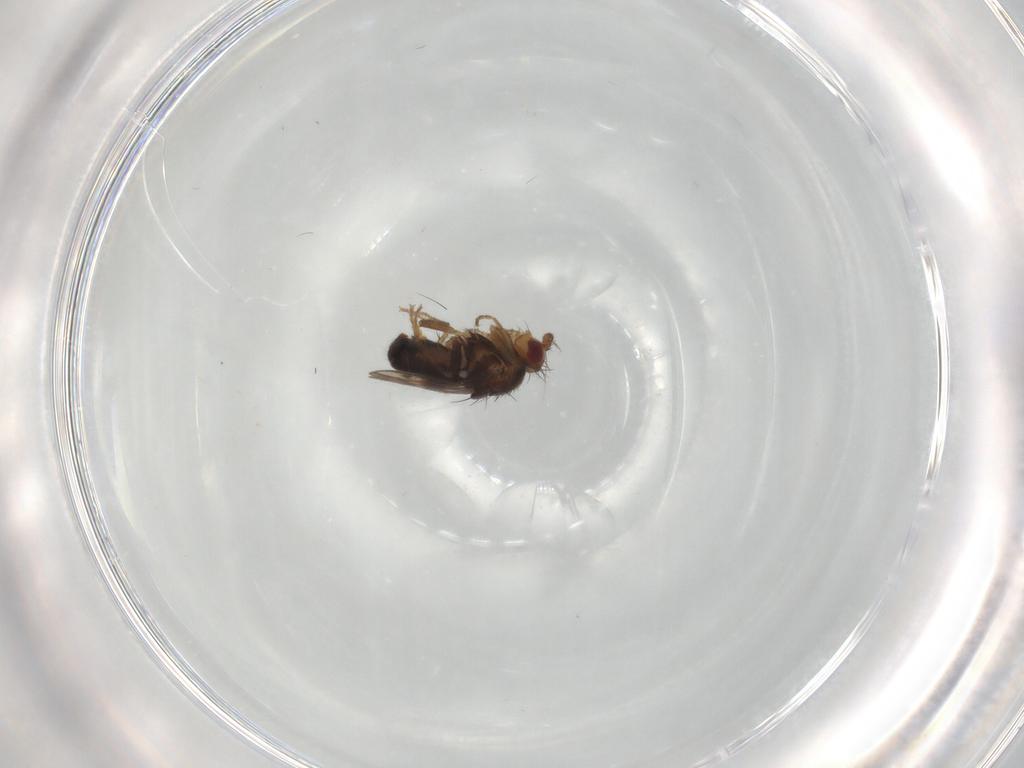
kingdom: Animalia
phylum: Arthropoda
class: Insecta
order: Diptera
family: Sphaeroceridae
